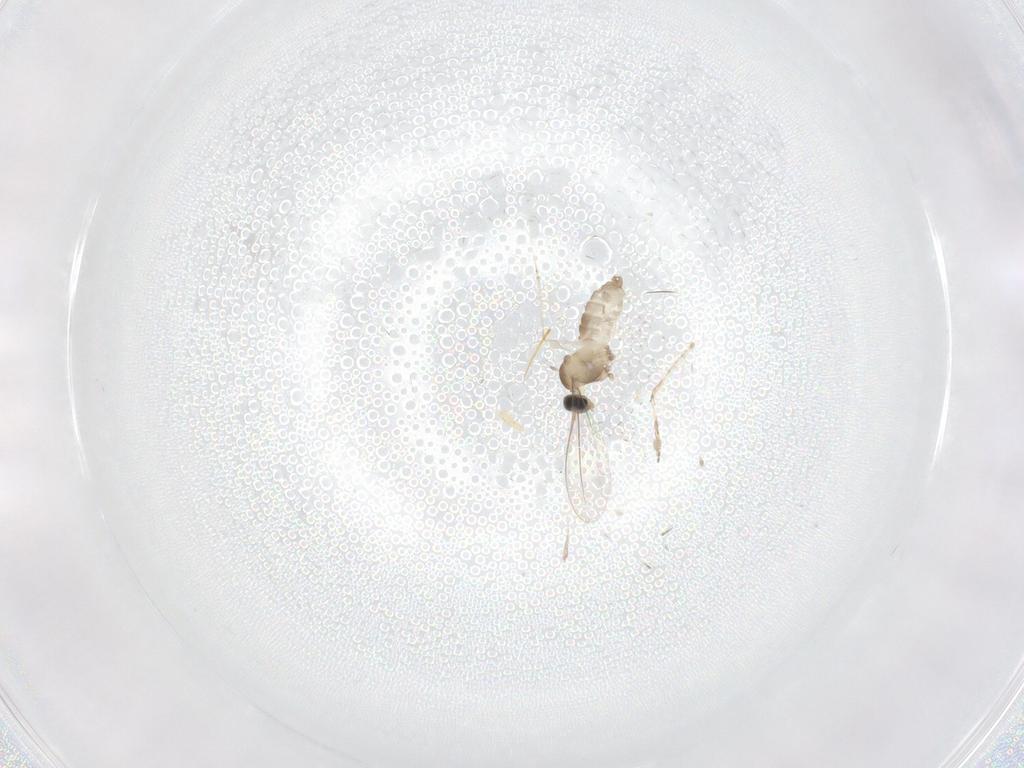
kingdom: Animalia
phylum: Arthropoda
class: Insecta
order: Diptera
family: Cecidomyiidae
